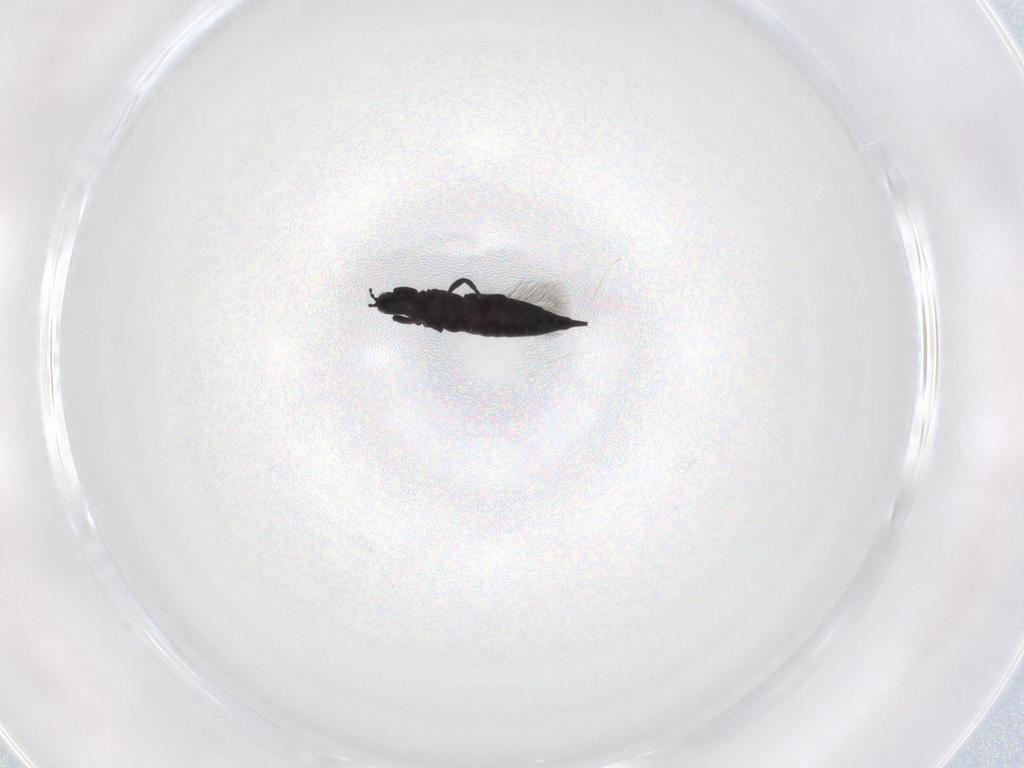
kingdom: Animalia
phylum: Arthropoda
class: Insecta
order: Thysanoptera
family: Phlaeothripidae
